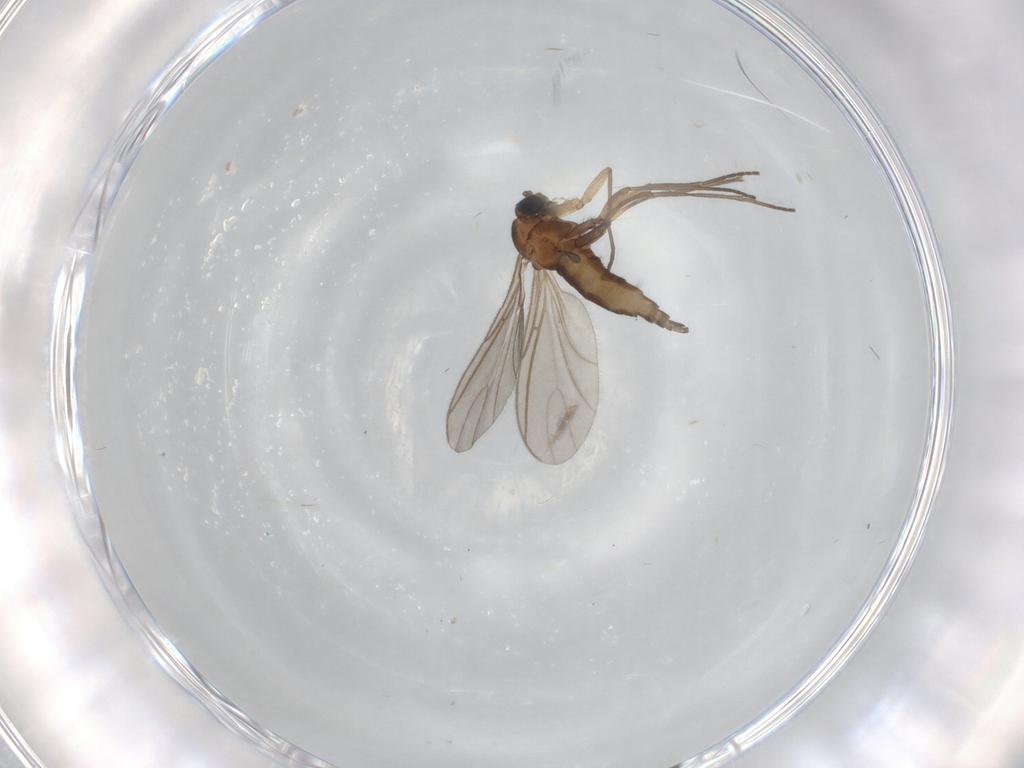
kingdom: Animalia
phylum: Arthropoda
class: Insecta
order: Diptera
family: Sciaridae
